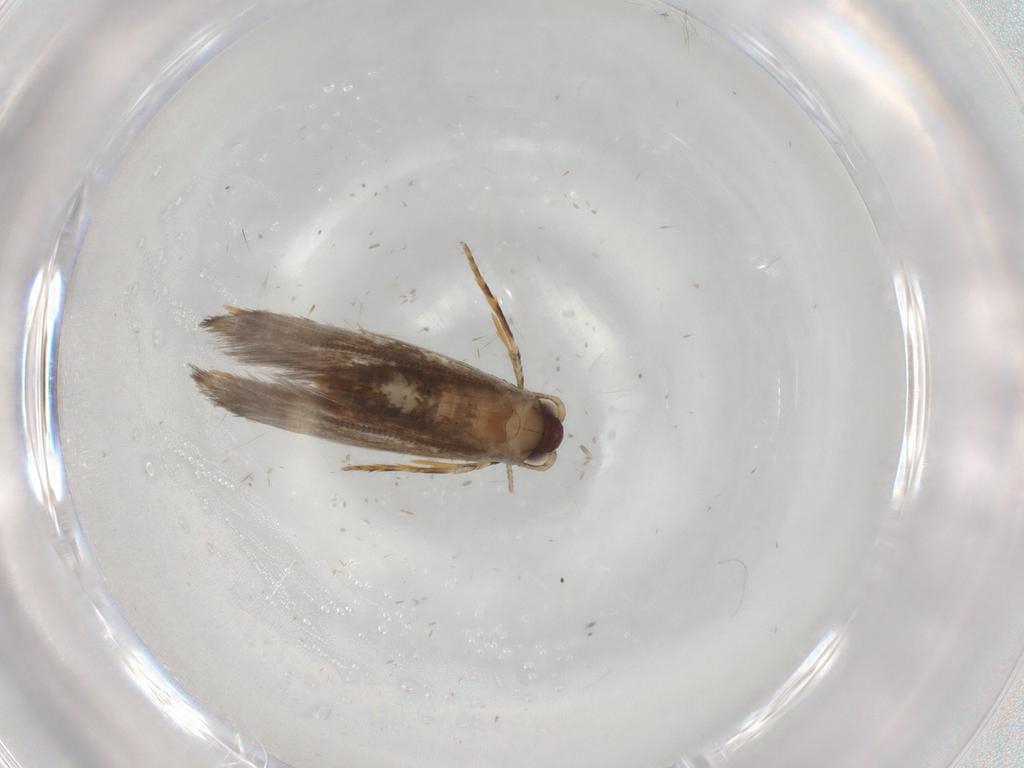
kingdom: Animalia
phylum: Arthropoda
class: Insecta
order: Lepidoptera
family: Tineidae
